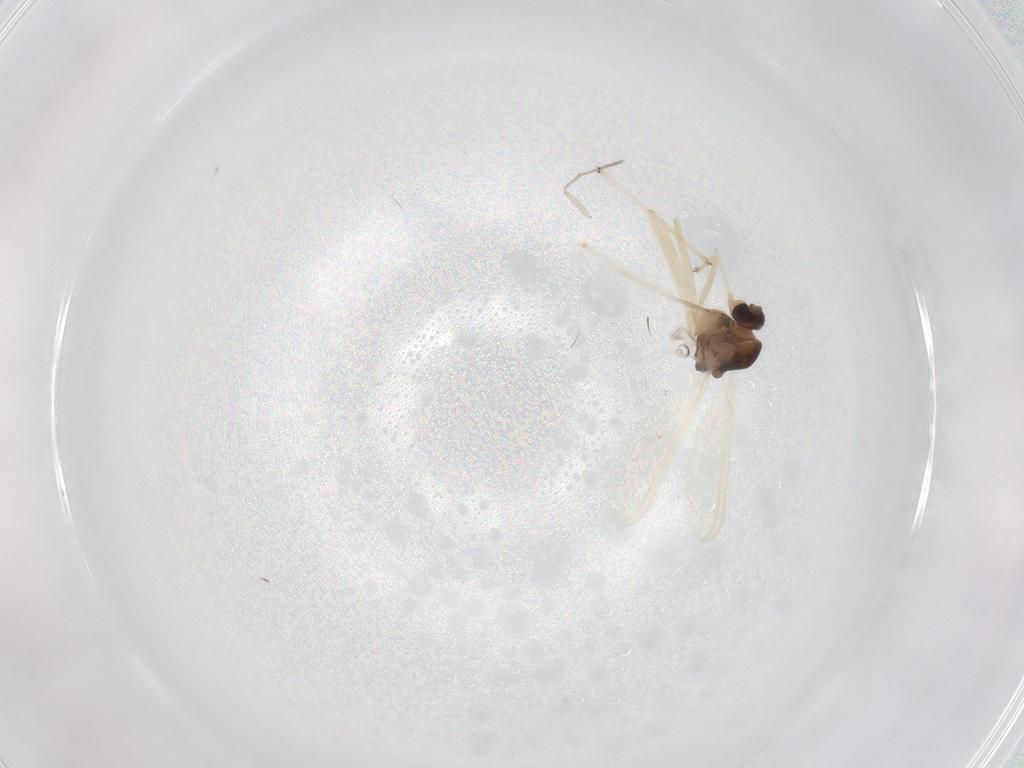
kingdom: Animalia
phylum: Arthropoda
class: Insecta
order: Diptera
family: Chironomidae
